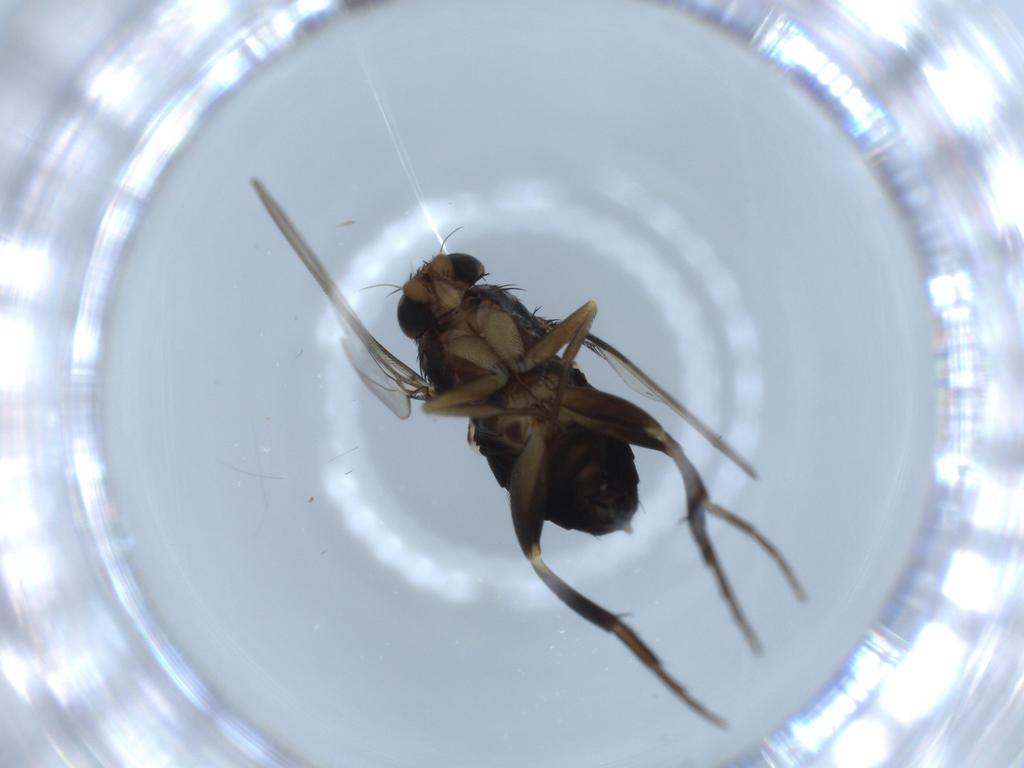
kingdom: Animalia
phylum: Arthropoda
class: Insecta
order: Diptera
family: Phoridae
